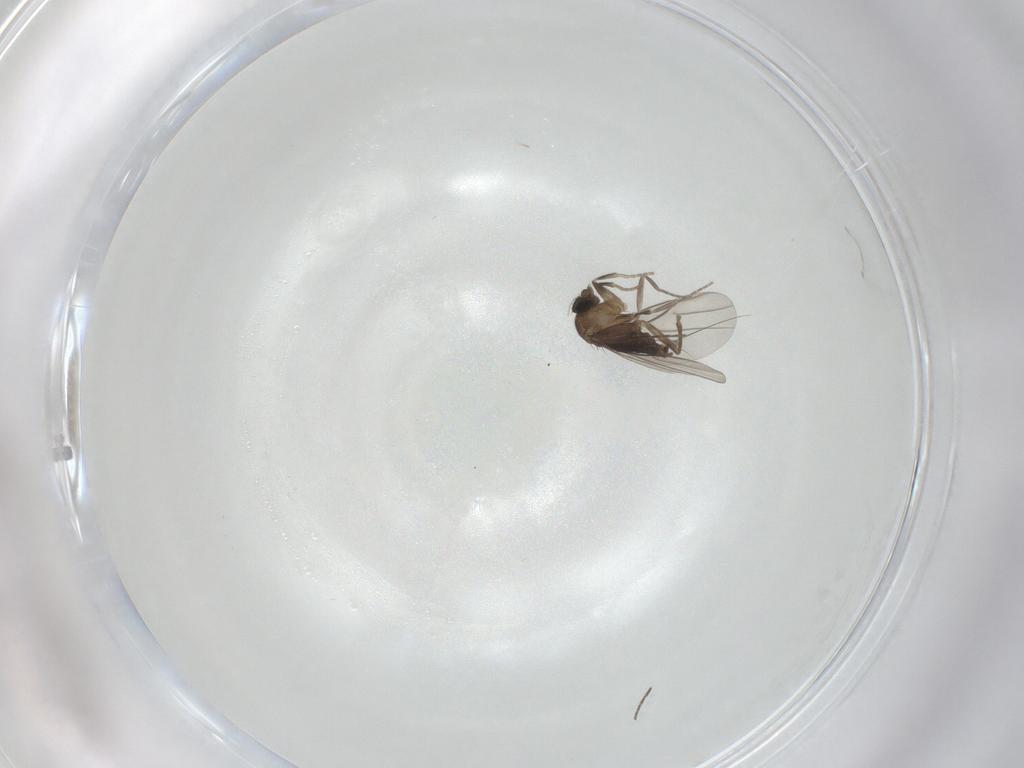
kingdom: Animalia
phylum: Arthropoda
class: Insecta
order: Diptera
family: Phoridae
